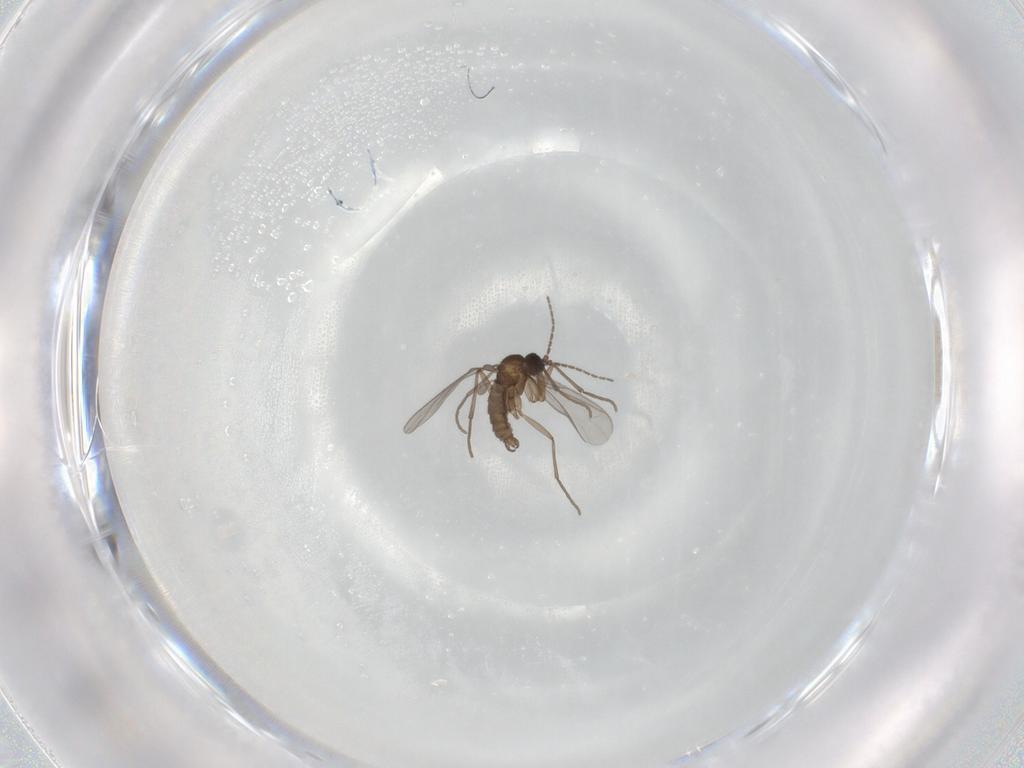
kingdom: Animalia
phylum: Arthropoda
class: Insecta
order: Diptera
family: Sciaridae
